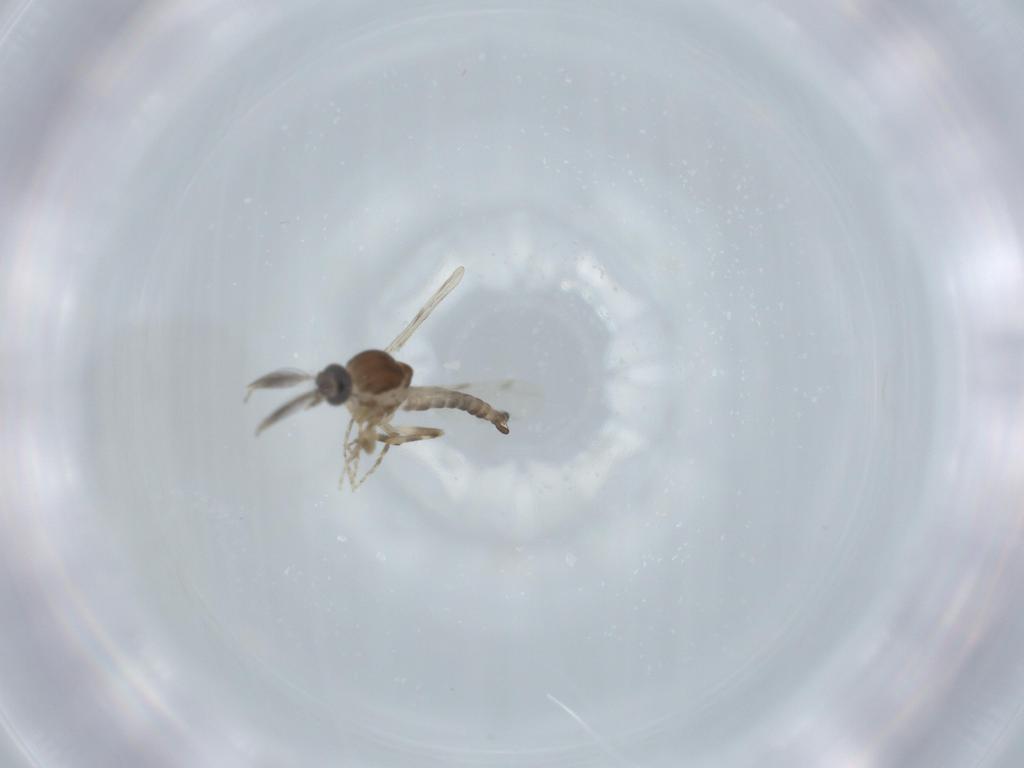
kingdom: Animalia
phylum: Arthropoda
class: Insecta
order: Diptera
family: Ceratopogonidae
